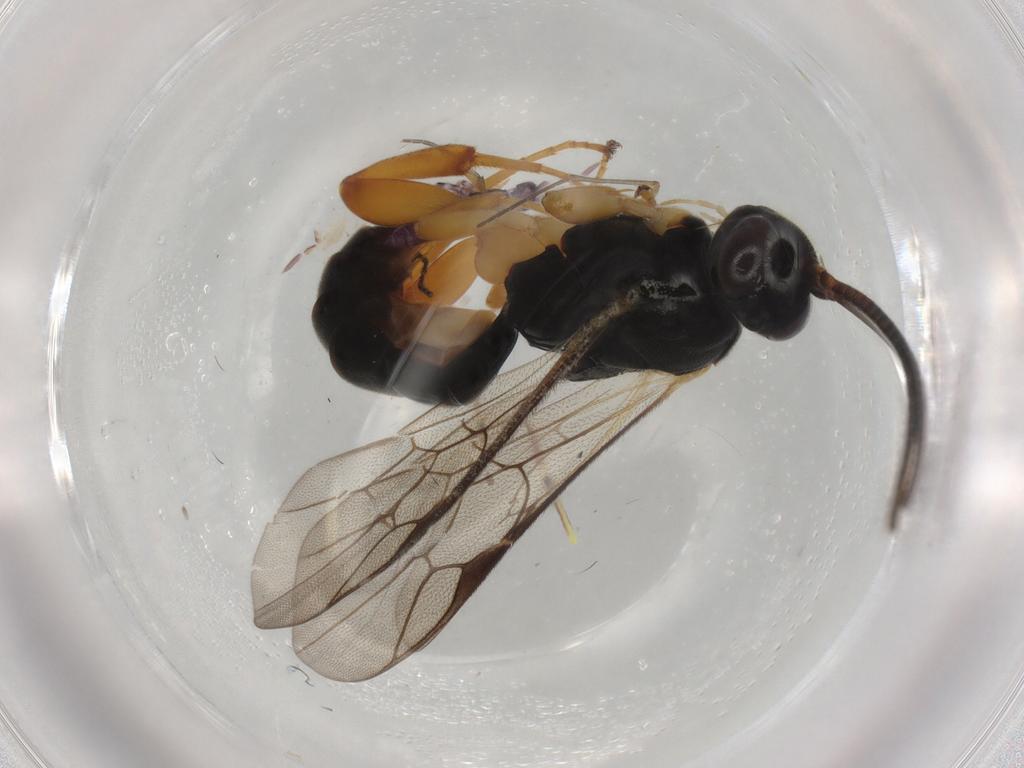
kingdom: Animalia
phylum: Arthropoda
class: Insecta
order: Hymenoptera
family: Ichneumonidae
